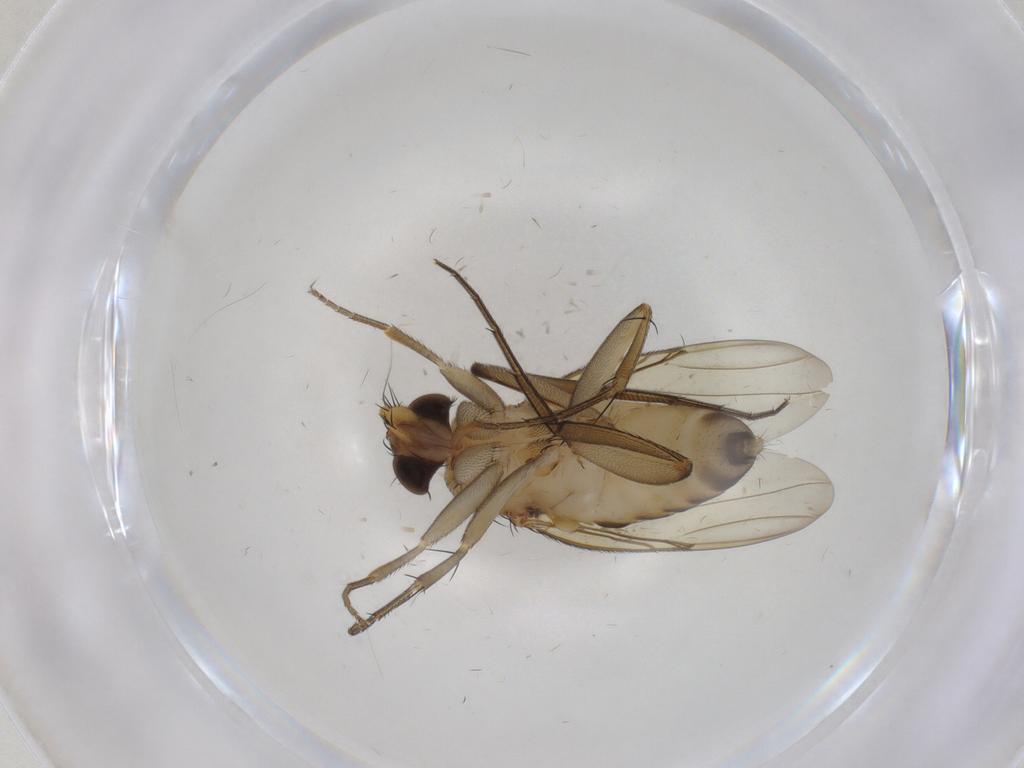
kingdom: Animalia
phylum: Arthropoda
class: Insecta
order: Diptera
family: Phoridae
